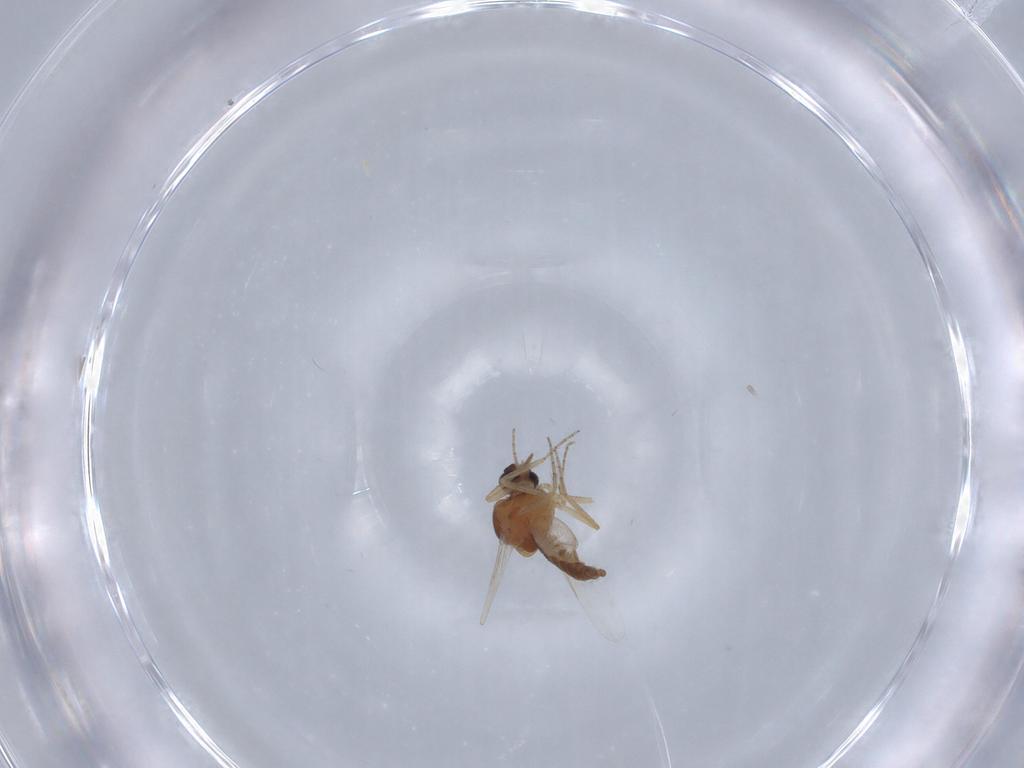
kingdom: Animalia
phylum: Arthropoda
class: Insecta
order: Diptera
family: Ceratopogonidae
